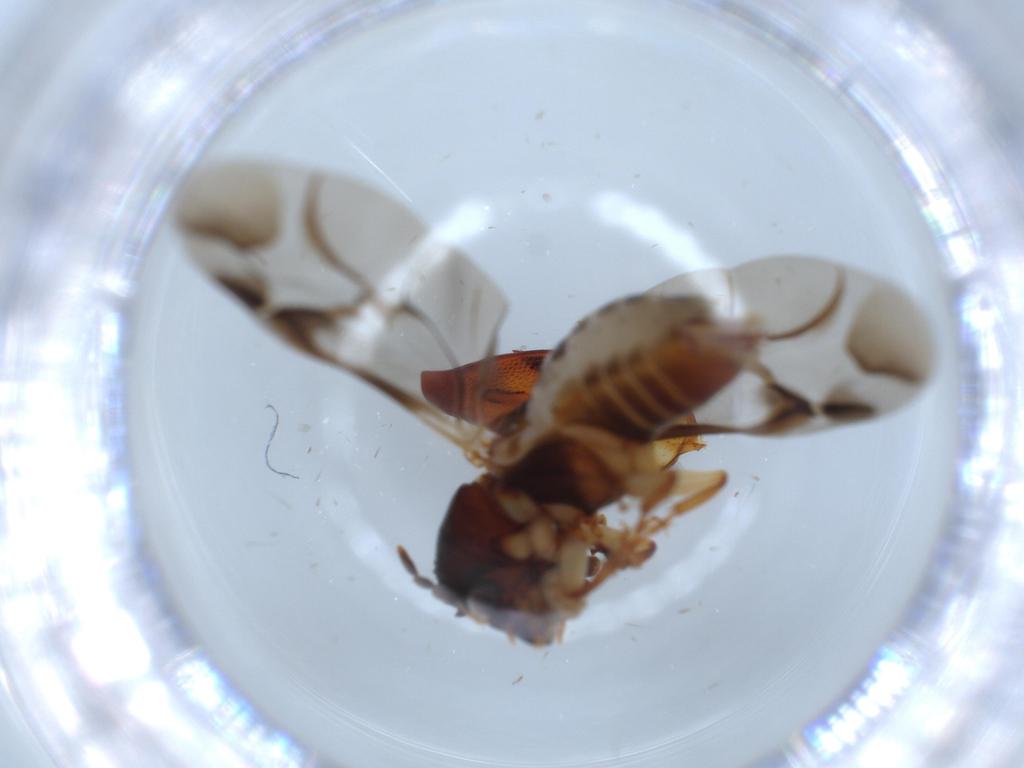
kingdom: Animalia
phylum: Arthropoda
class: Insecta
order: Coleoptera
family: Bostrichidae
